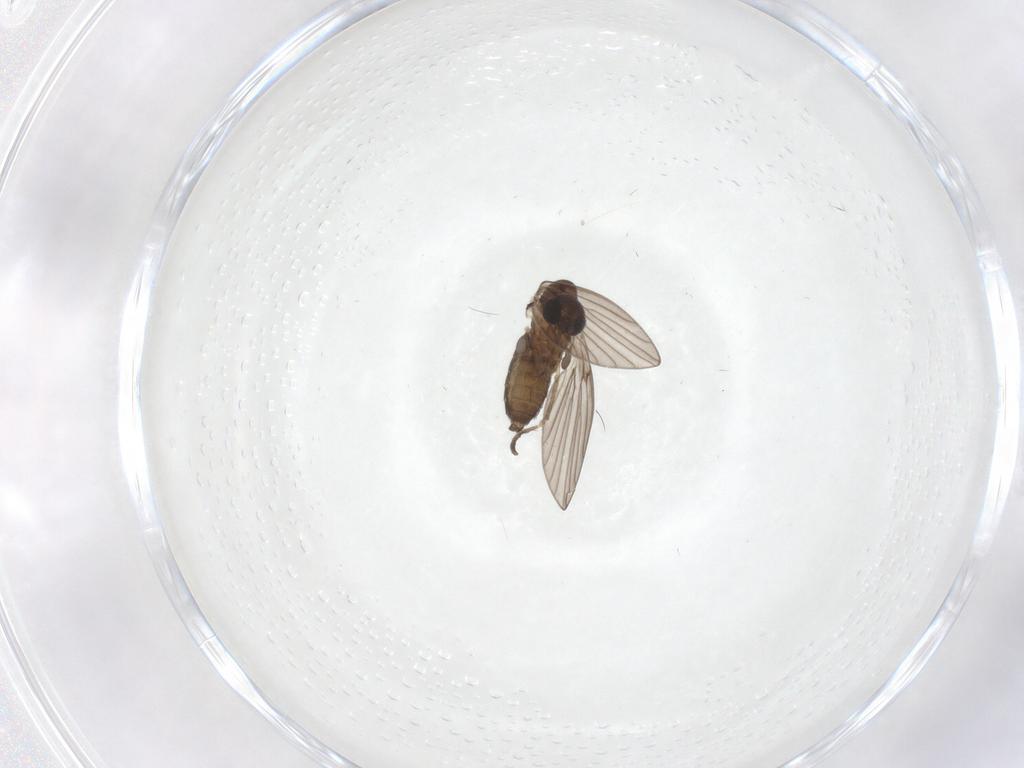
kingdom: Animalia
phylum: Arthropoda
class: Insecta
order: Diptera
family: Psychodidae
